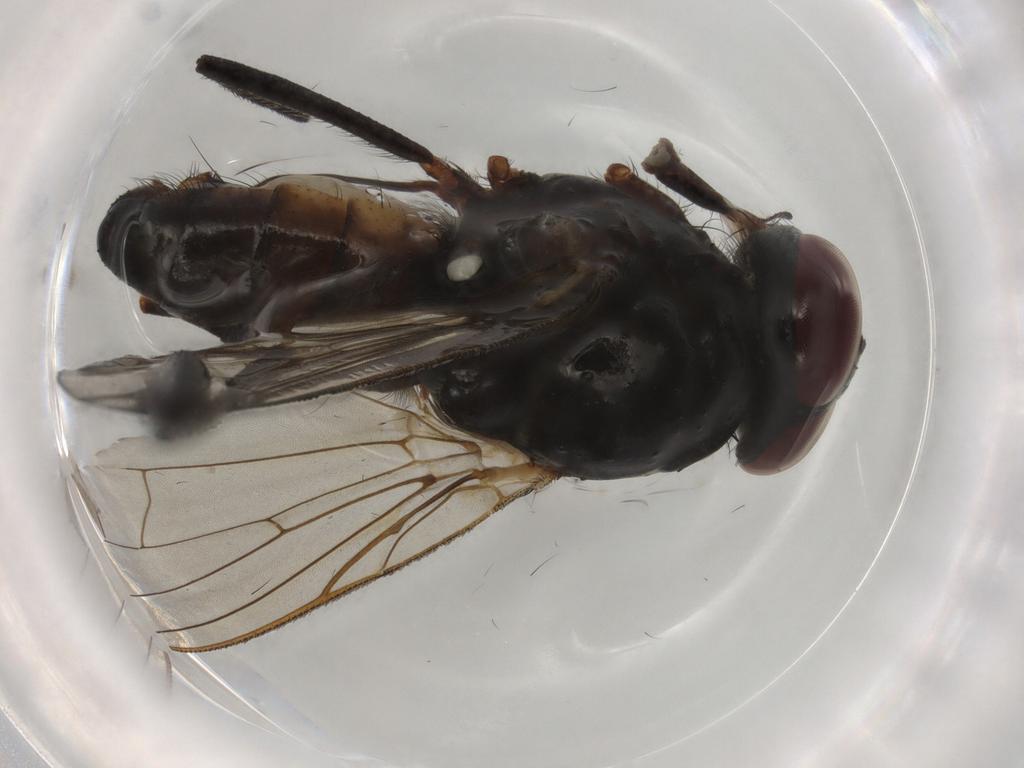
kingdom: Animalia
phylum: Arthropoda
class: Insecta
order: Diptera
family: Anthomyiidae
